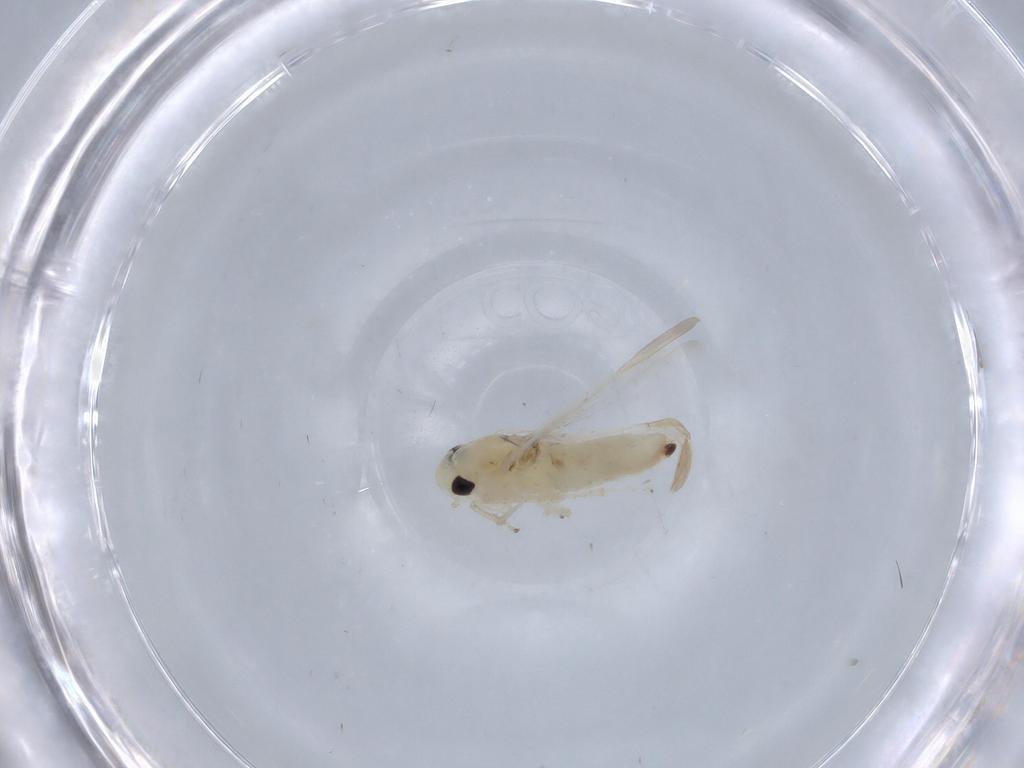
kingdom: Animalia
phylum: Arthropoda
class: Insecta
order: Hemiptera
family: Cicadellidae
